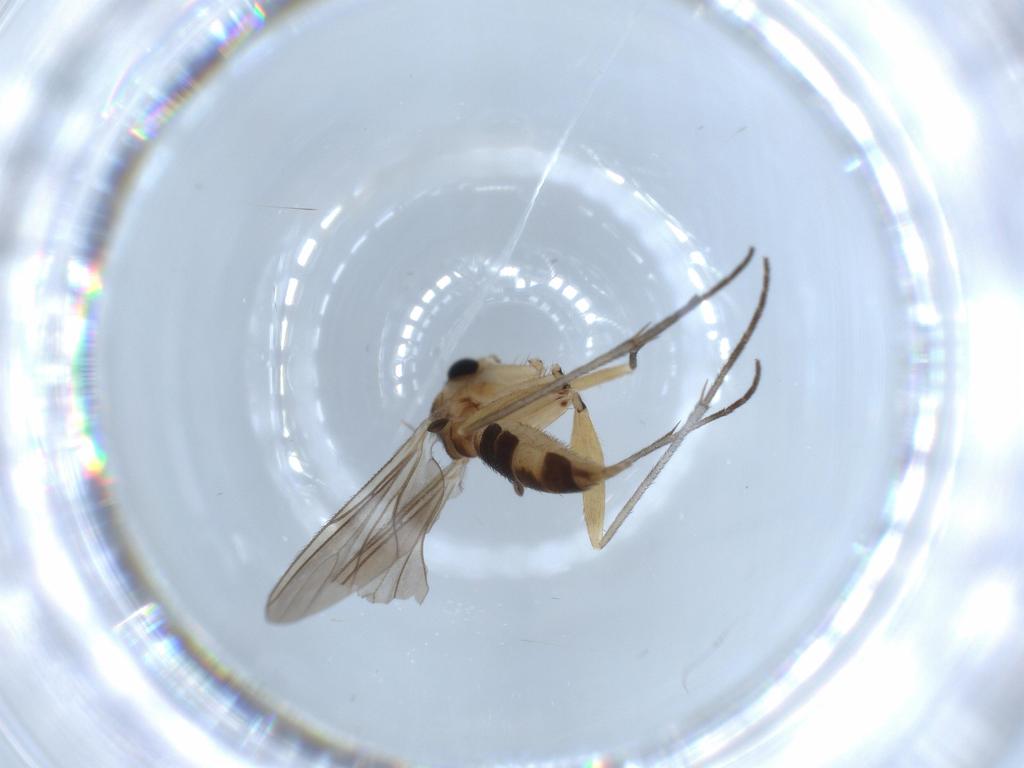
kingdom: Animalia
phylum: Arthropoda
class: Insecta
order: Diptera
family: Sciaridae
